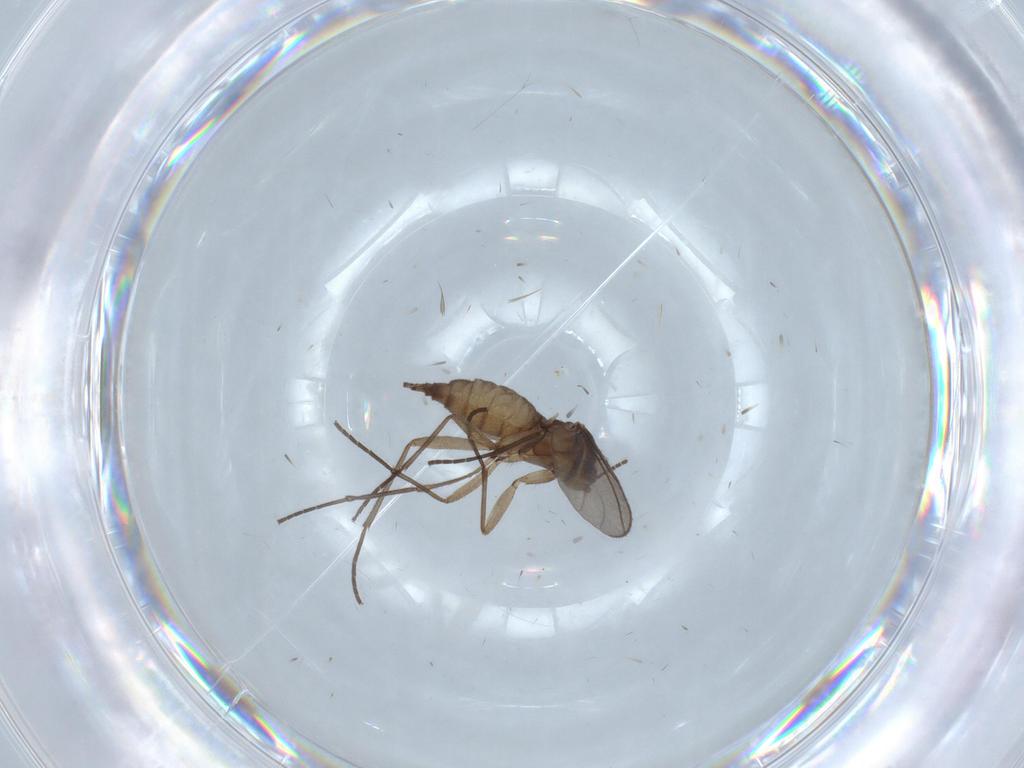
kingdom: Animalia
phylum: Arthropoda
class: Insecta
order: Diptera
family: Sciaridae
